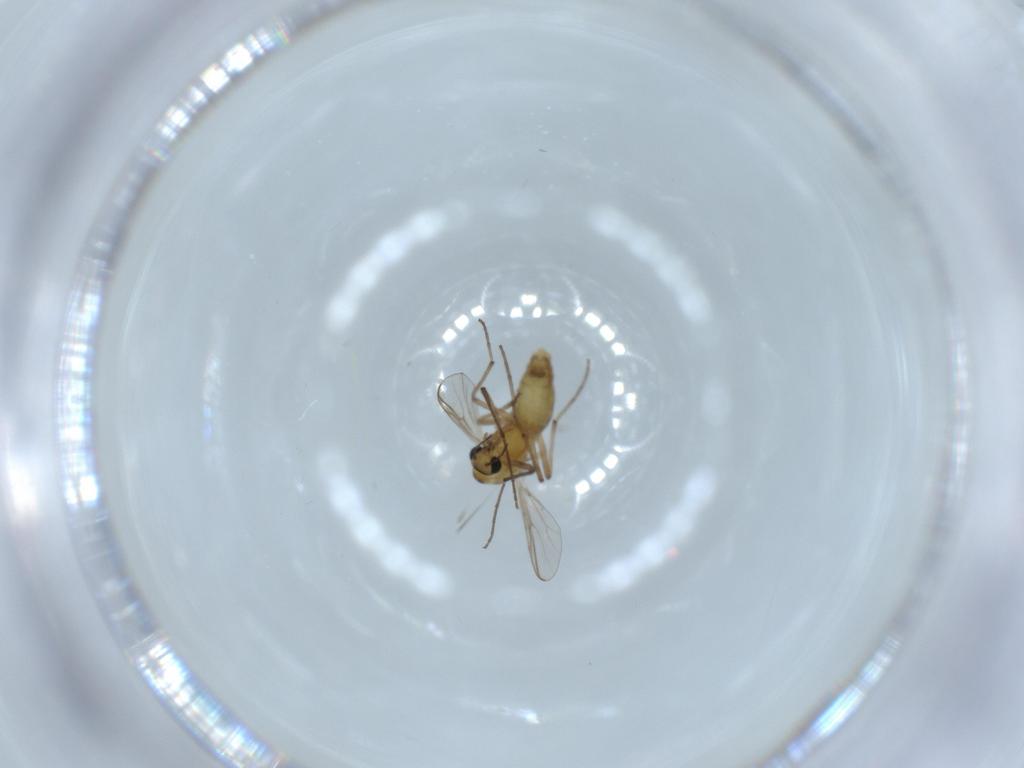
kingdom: Animalia
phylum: Arthropoda
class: Insecta
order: Diptera
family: Chironomidae
